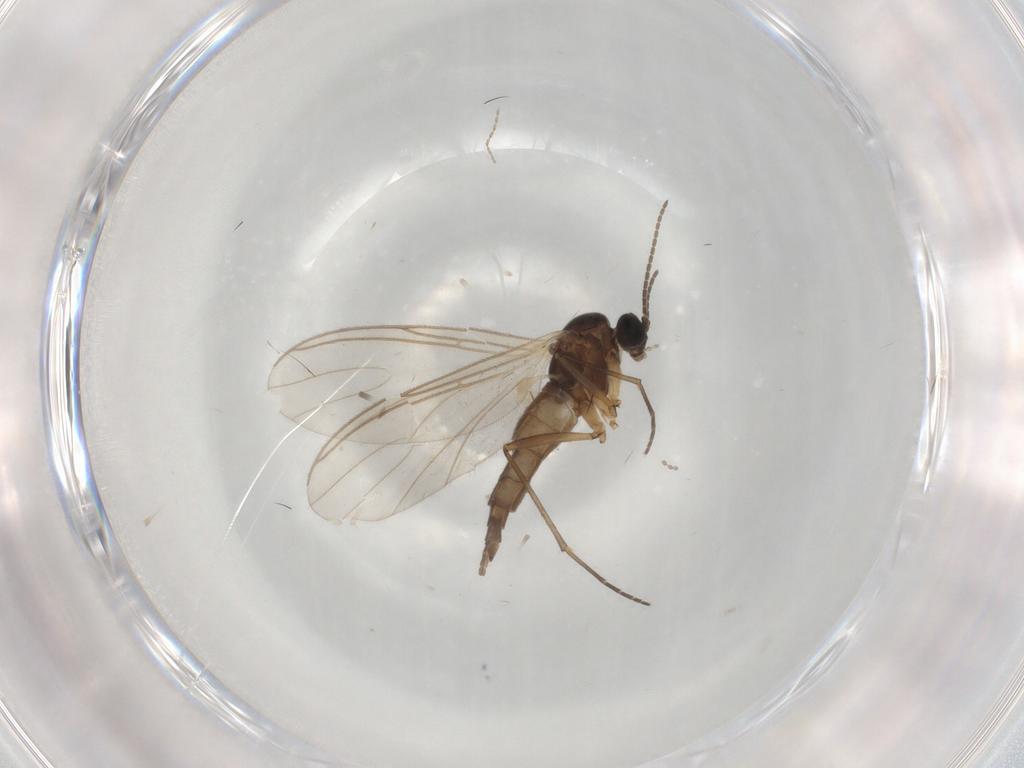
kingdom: Animalia
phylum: Arthropoda
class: Insecta
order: Diptera
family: Sciaridae
